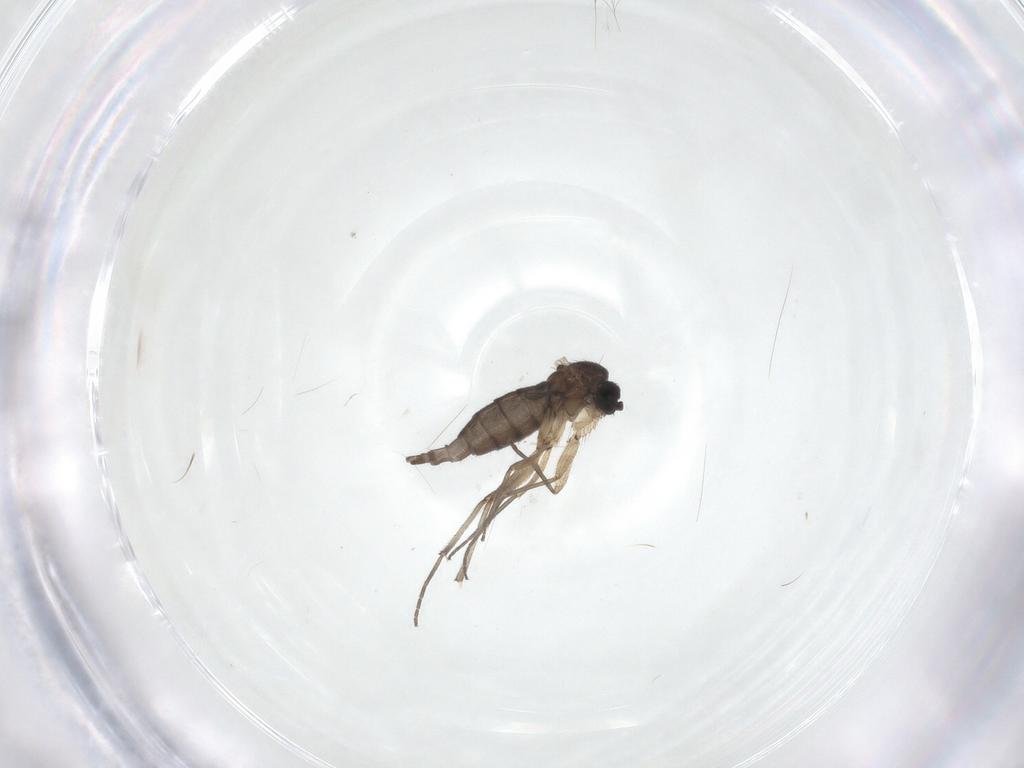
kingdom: Animalia
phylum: Arthropoda
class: Insecta
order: Diptera
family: Sciaridae
